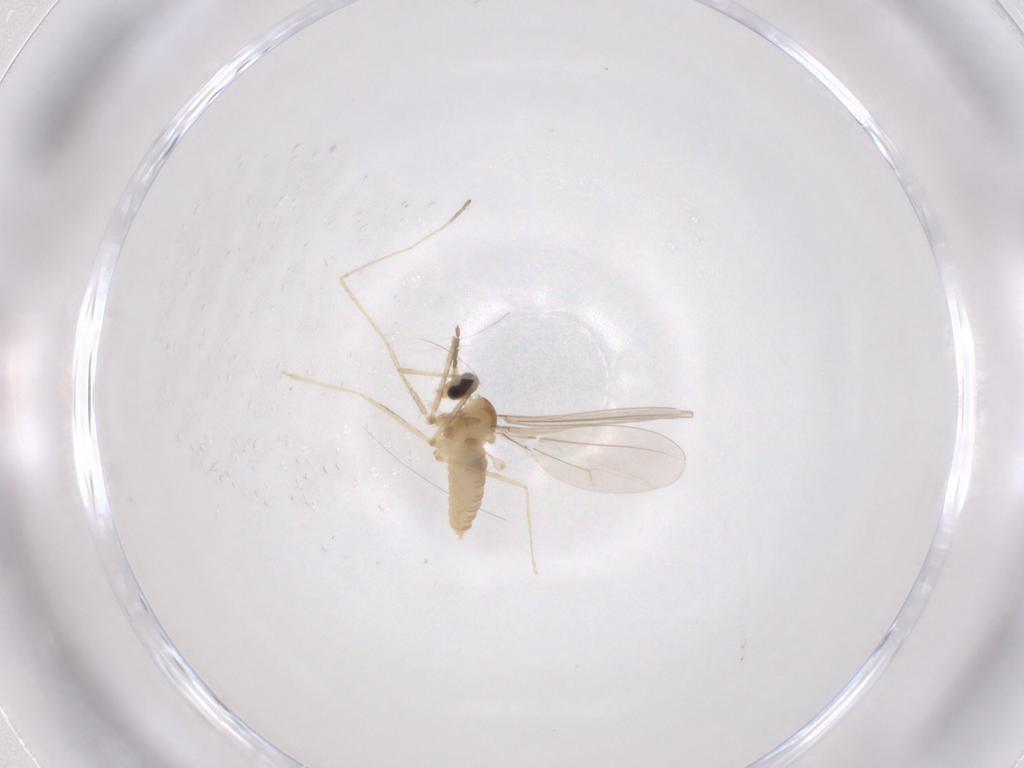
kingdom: Animalia
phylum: Arthropoda
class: Insecta
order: Diptera
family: Cecidomyiidae
